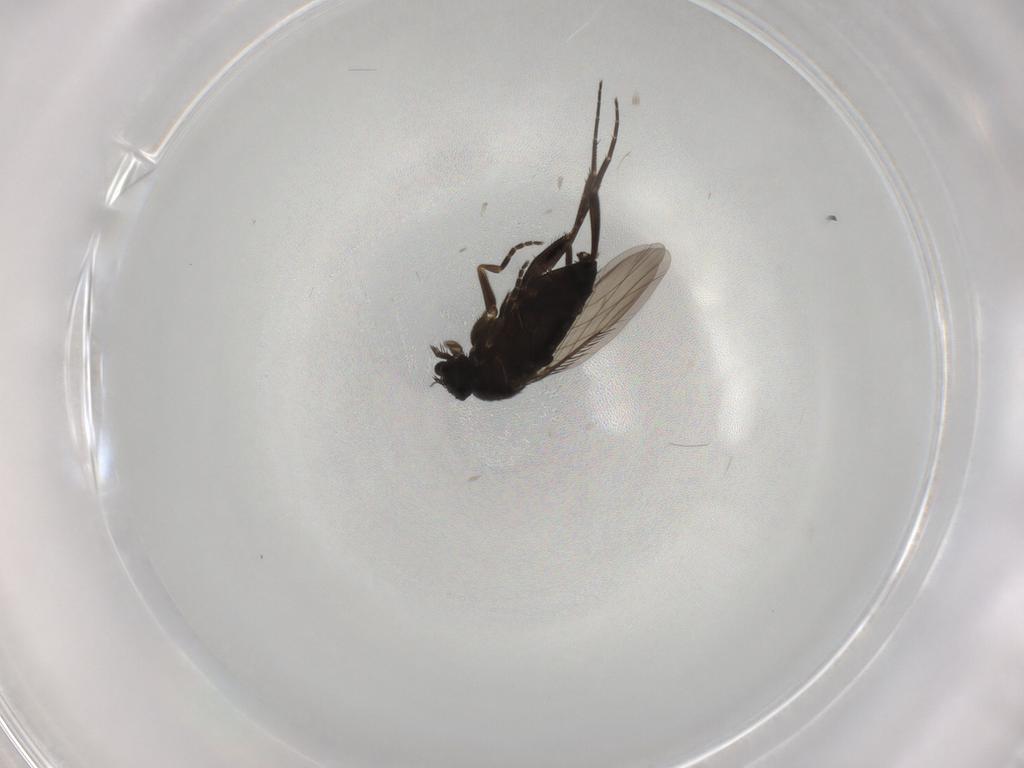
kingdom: Animalia
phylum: Arthropoda
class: Insecta
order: Diptera
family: Phoridae
